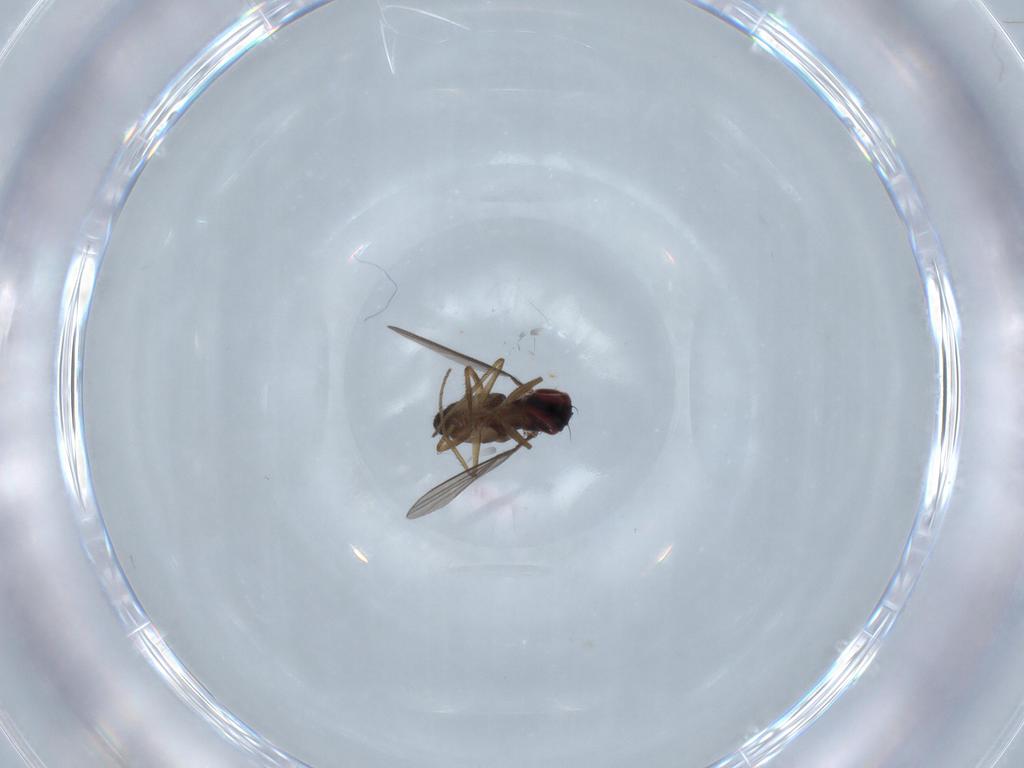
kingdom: Animalia
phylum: Arthropoda
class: Insecta
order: Diptera
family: Dolichopodidae
